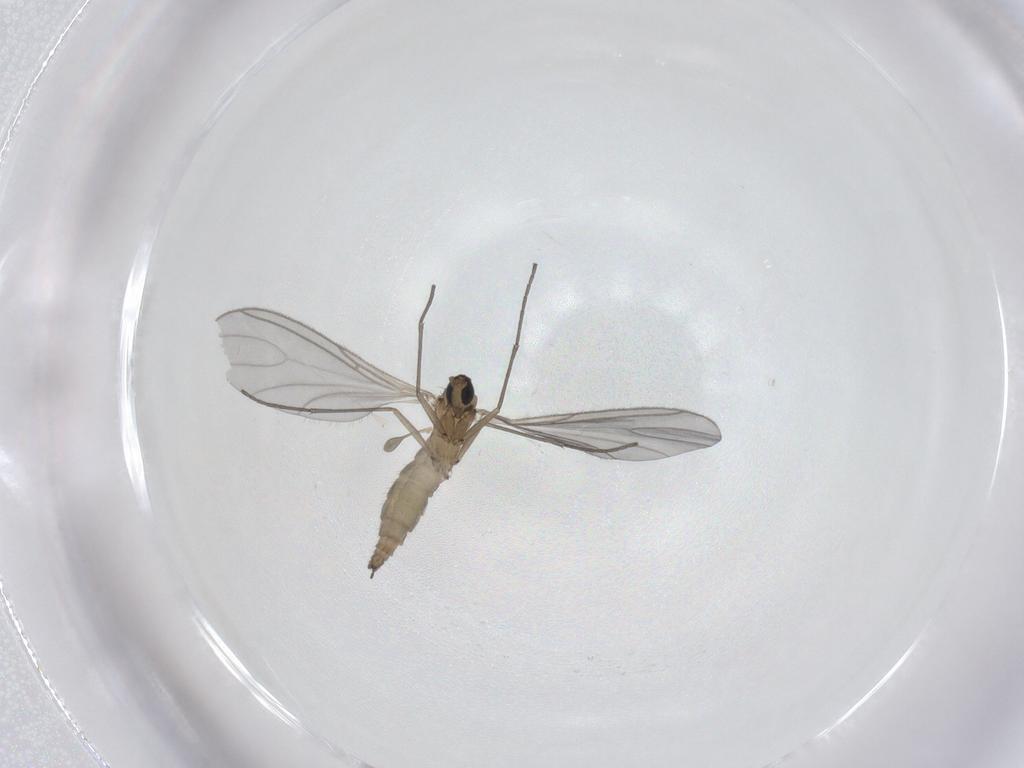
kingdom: Animalia
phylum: Arthropoda
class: Insecta
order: Diptera
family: Sciaridae
